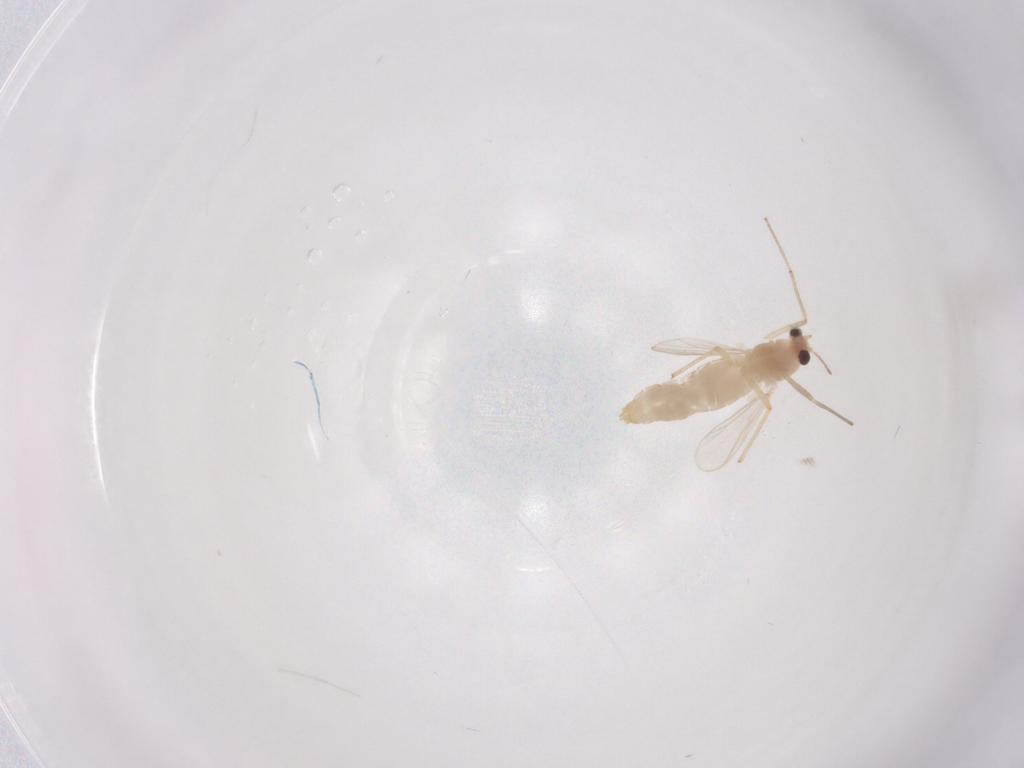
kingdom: Animalia
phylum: Arthropoda
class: Insecta
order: Diptera
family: Chironomidae
